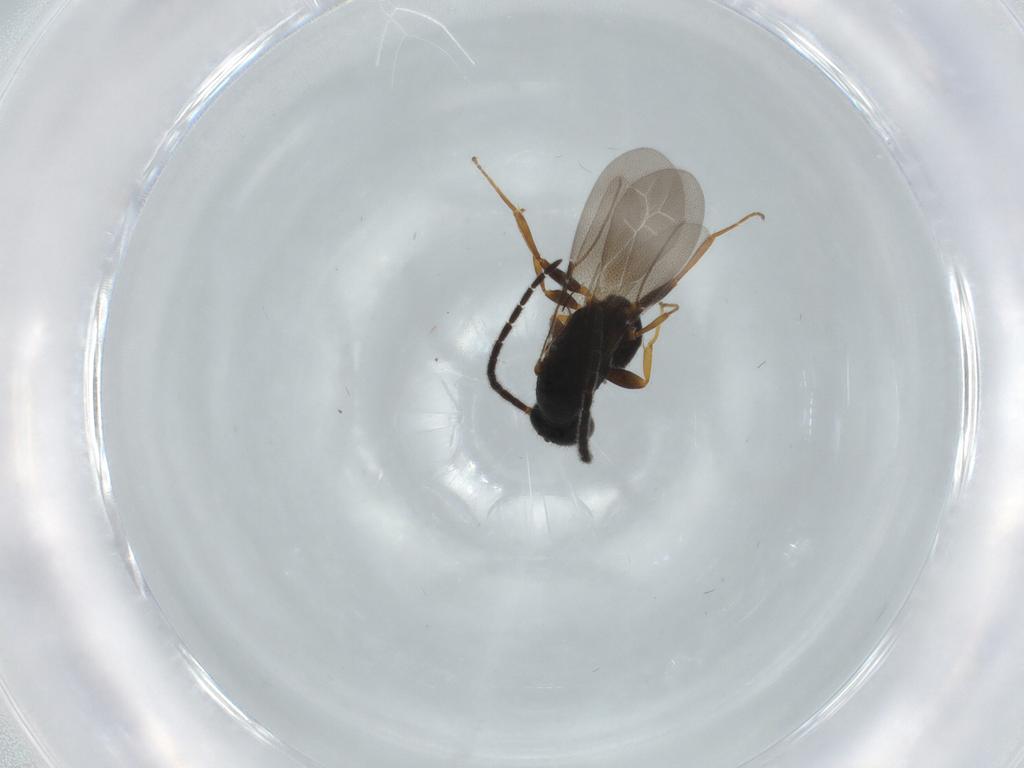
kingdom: Animalia
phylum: Arthropoda
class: Insecta
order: Hymenoptera
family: Bethylidae
